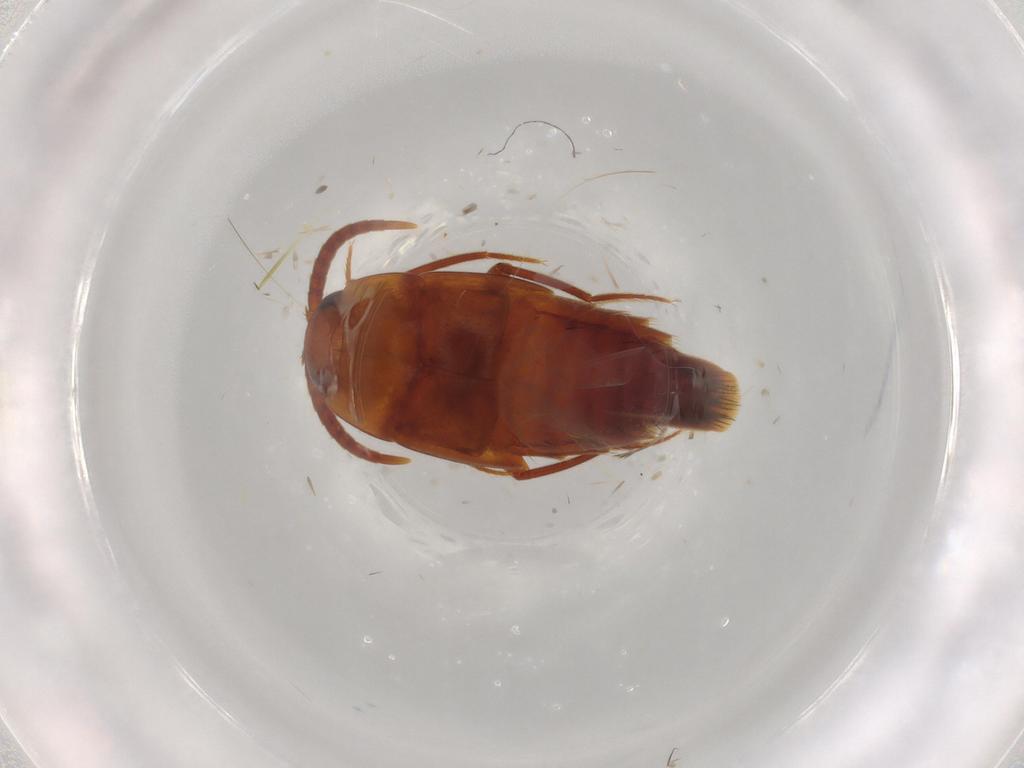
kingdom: Animalia
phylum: Arthropoda
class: Insecta
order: Coleoptera
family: Staphylinidae
